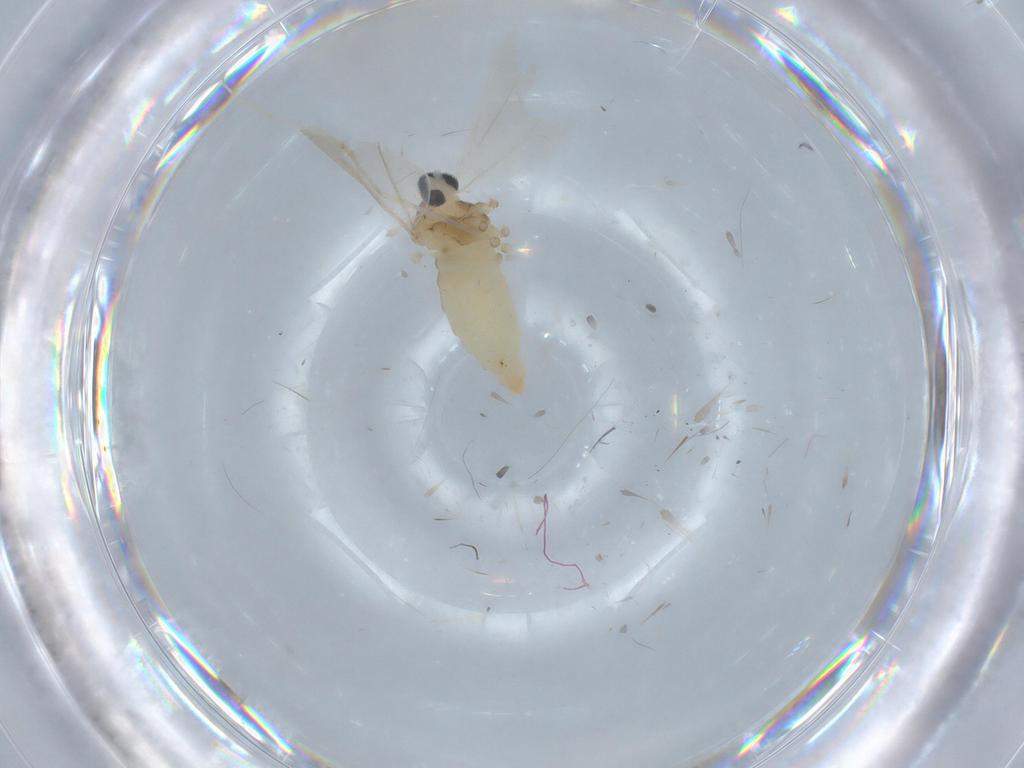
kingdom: Animalia
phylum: Arthropoda
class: Insecta
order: Diptera
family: Cecidomyiidae
